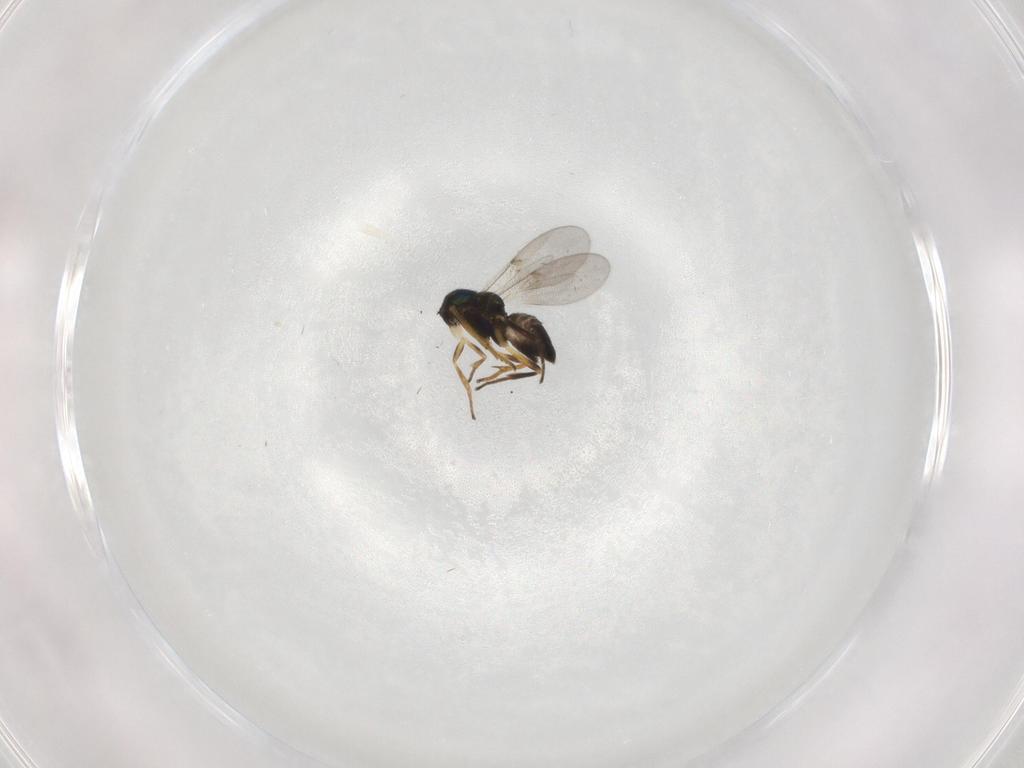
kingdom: Animalia
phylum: Arthropoda
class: Insecta
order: Hymenoptera
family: Encyrtidae
